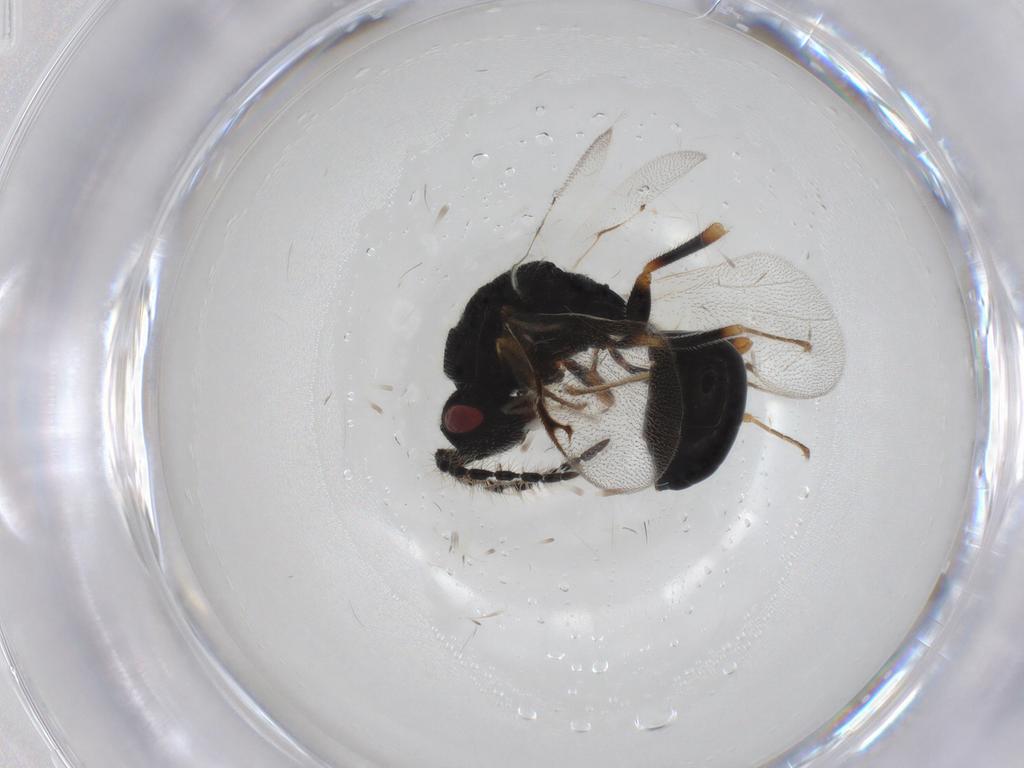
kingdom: Animalia
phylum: Arthropoda
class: Insecta
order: Hymenoptera
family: Eurytomidae
